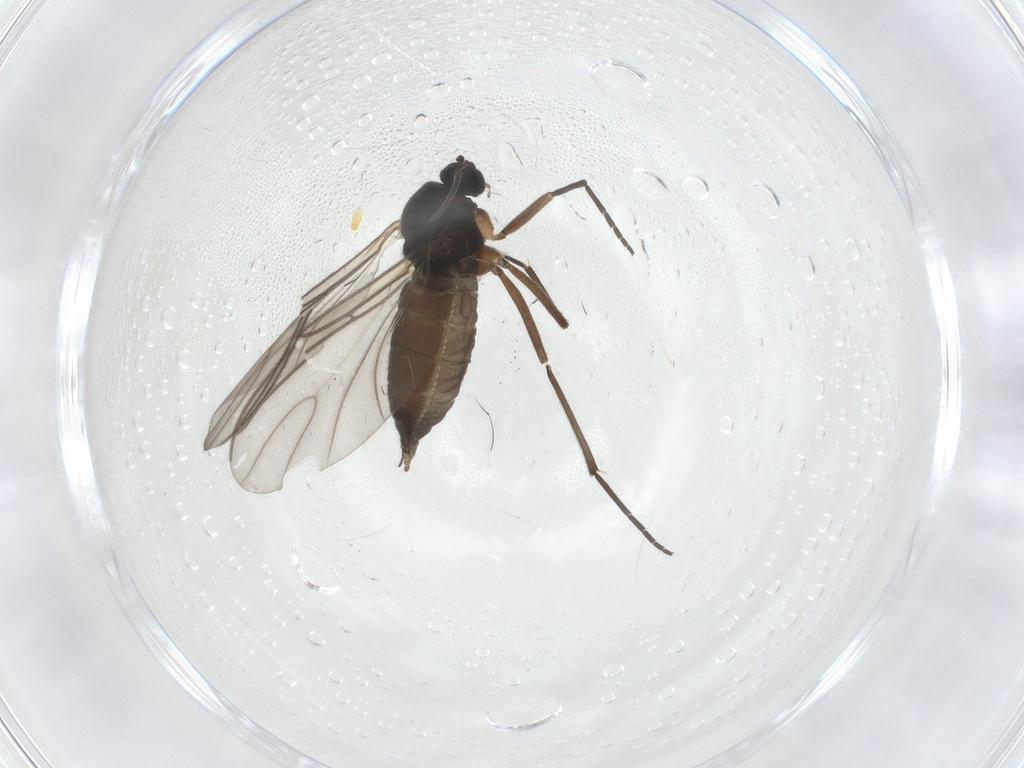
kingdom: Animalia
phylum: Arthropoda
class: Insecta
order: Diptera
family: Sciaridae
